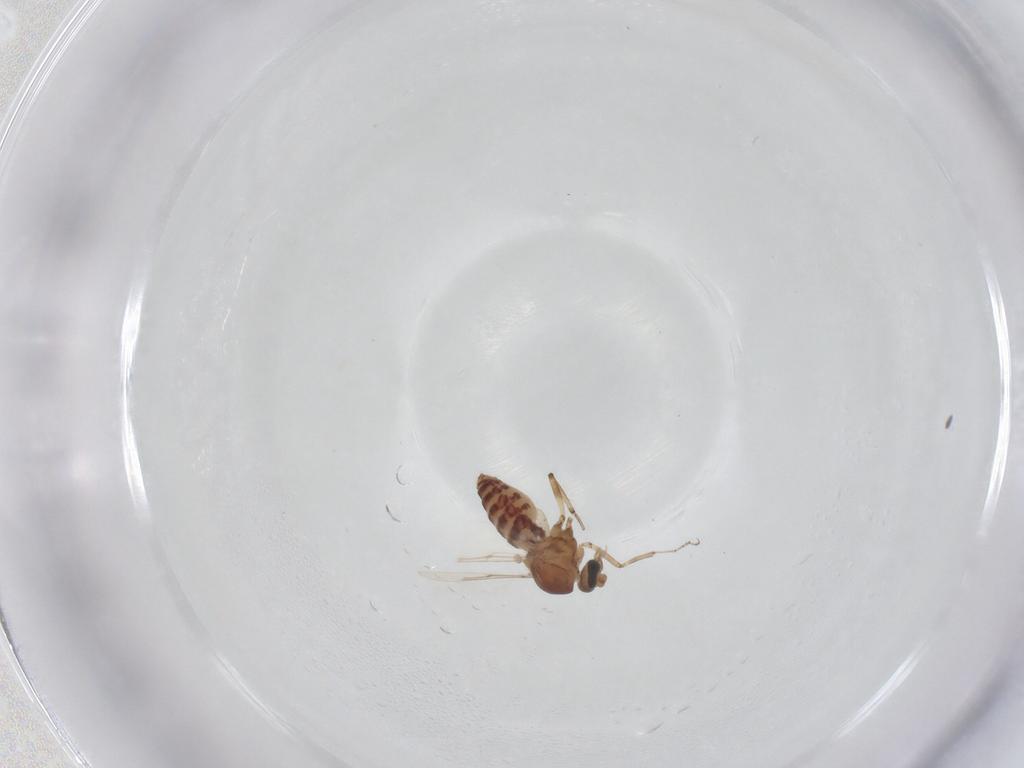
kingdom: Animalia
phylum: Arthropoda
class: Insecta
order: Diptera
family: Ceratopogonidae
